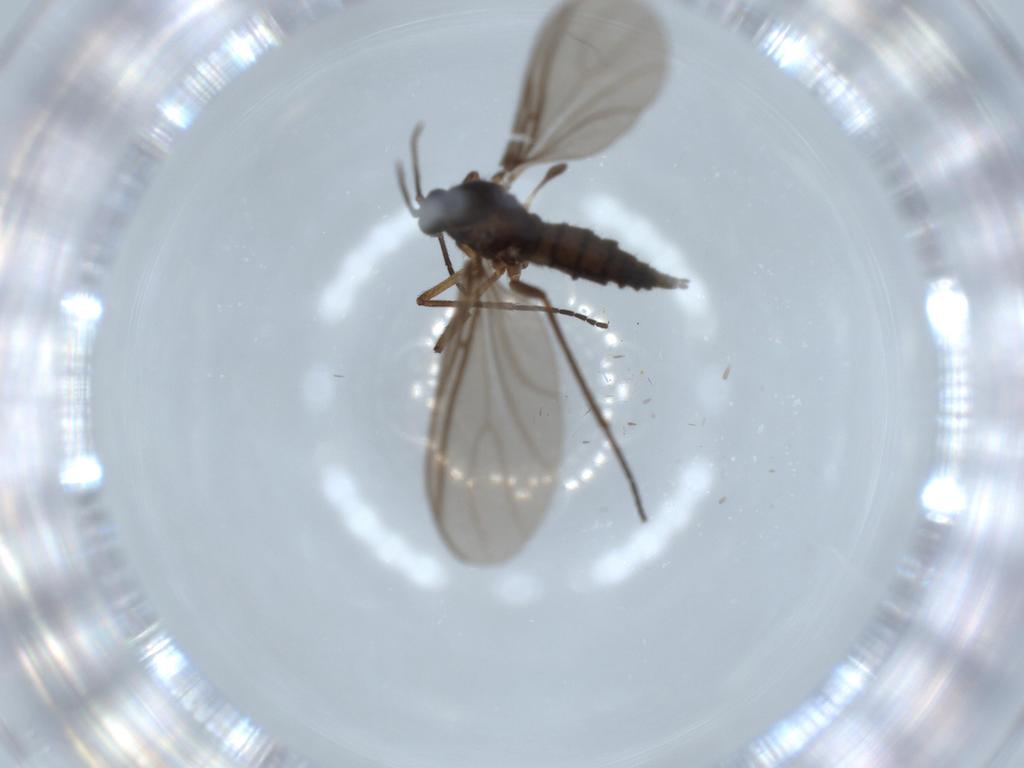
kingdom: Animalia
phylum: Arthropoda
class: Insecta
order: Diptera
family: Sciaridae
